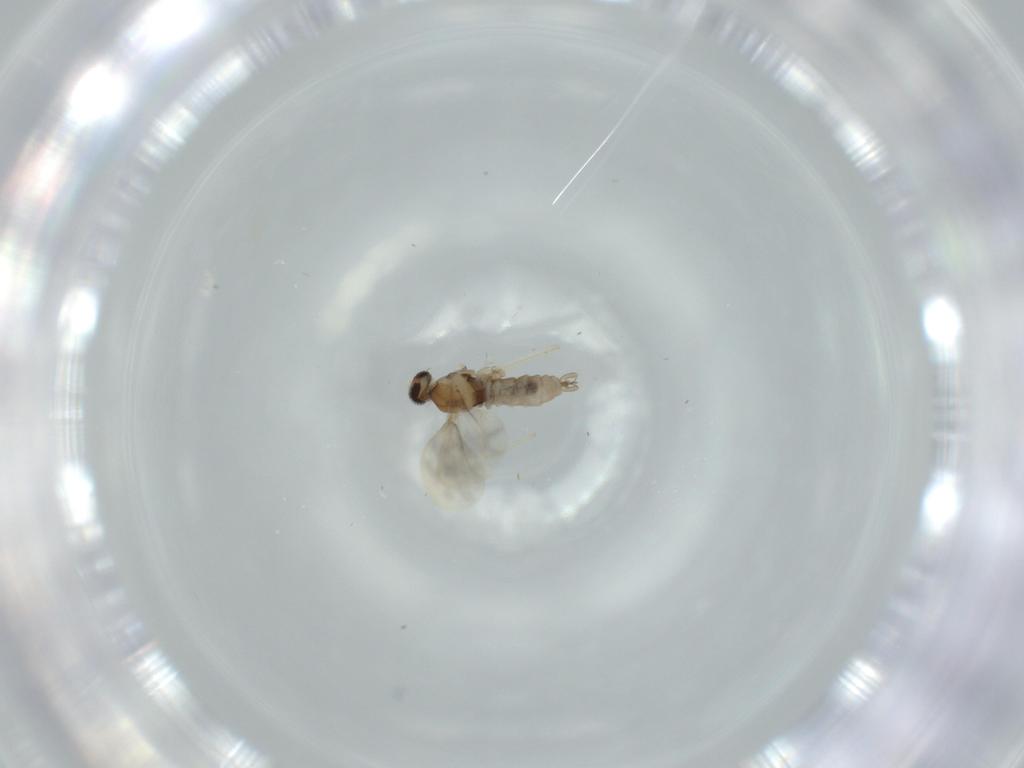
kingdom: Animalia
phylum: Arthropoda
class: Insecta
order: Diptera
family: Cecidomyiidae
